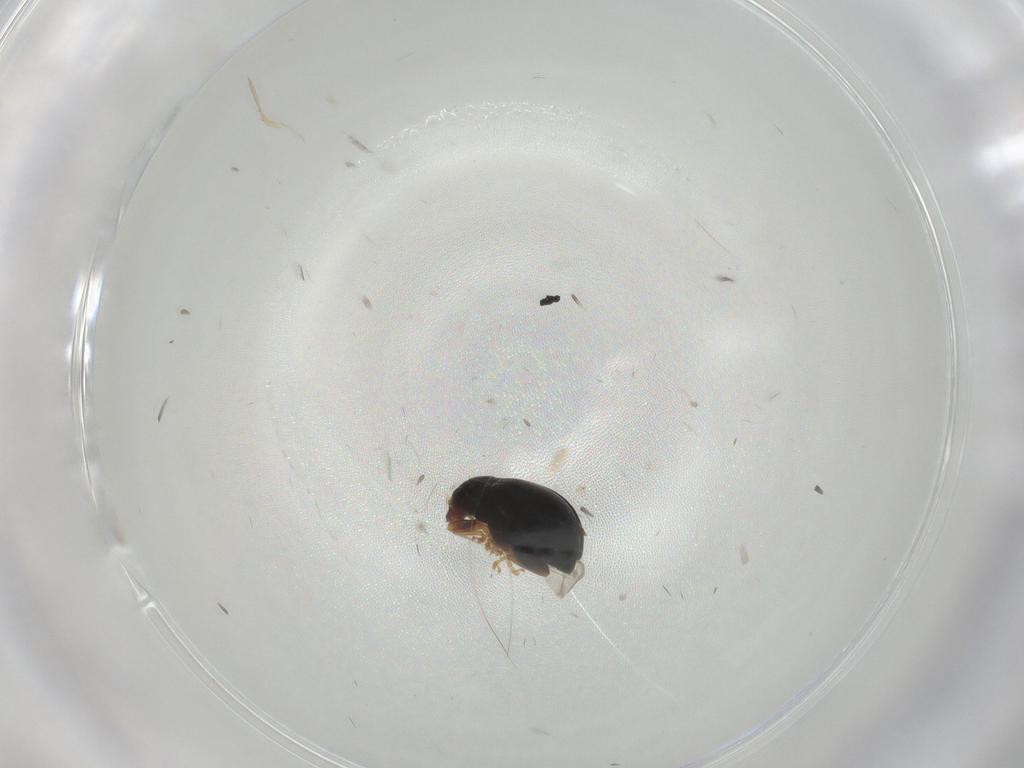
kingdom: Animalia
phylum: Arthropoda
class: Insecta
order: Coleoptera
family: Chrysomelidae
